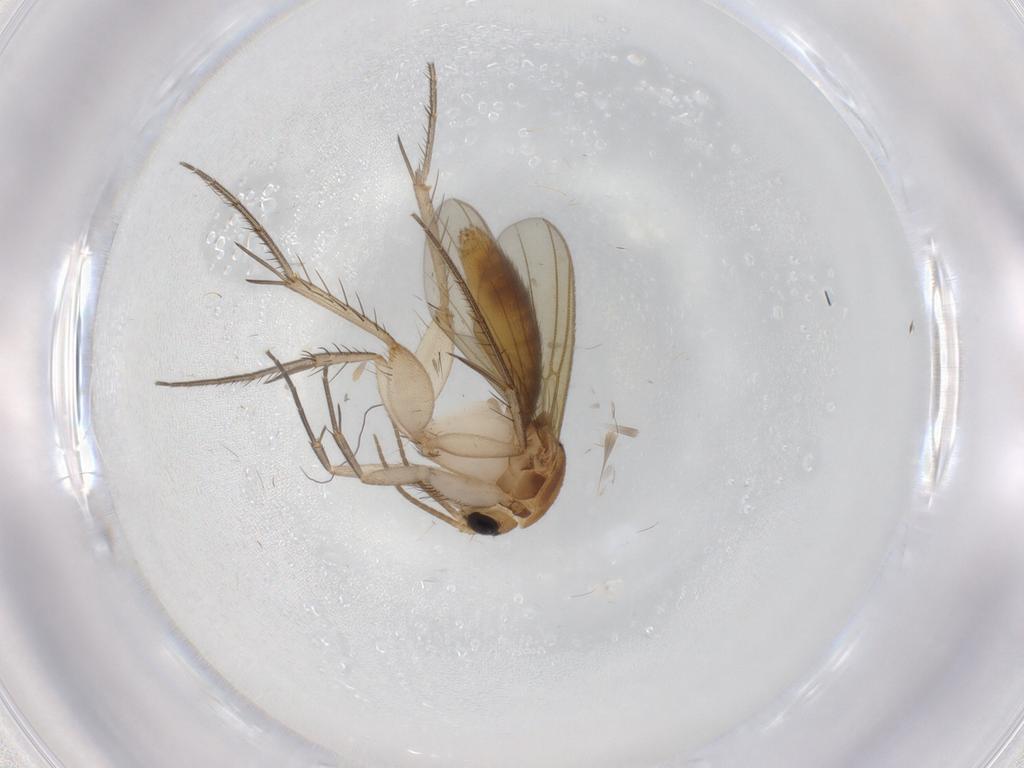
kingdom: Animalia
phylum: Arthropoda
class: Insecta
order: Diptera
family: Phoridae
